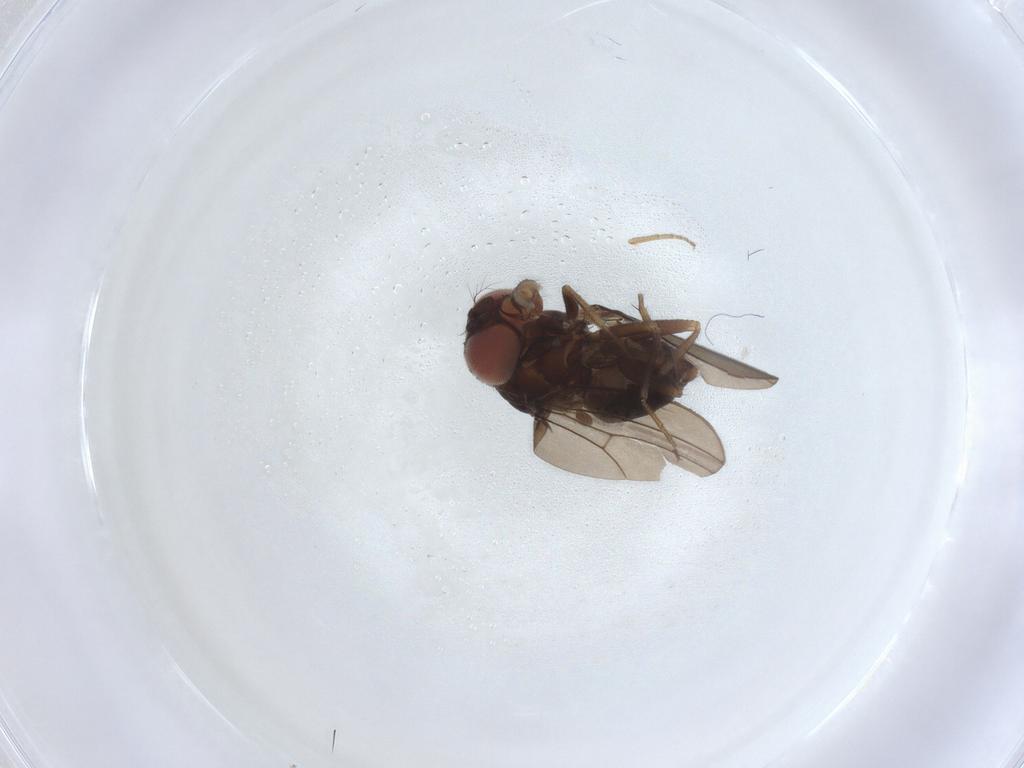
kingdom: Animalia
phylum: Arthropoda
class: Insecta
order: Diptera
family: Drosophilidae
